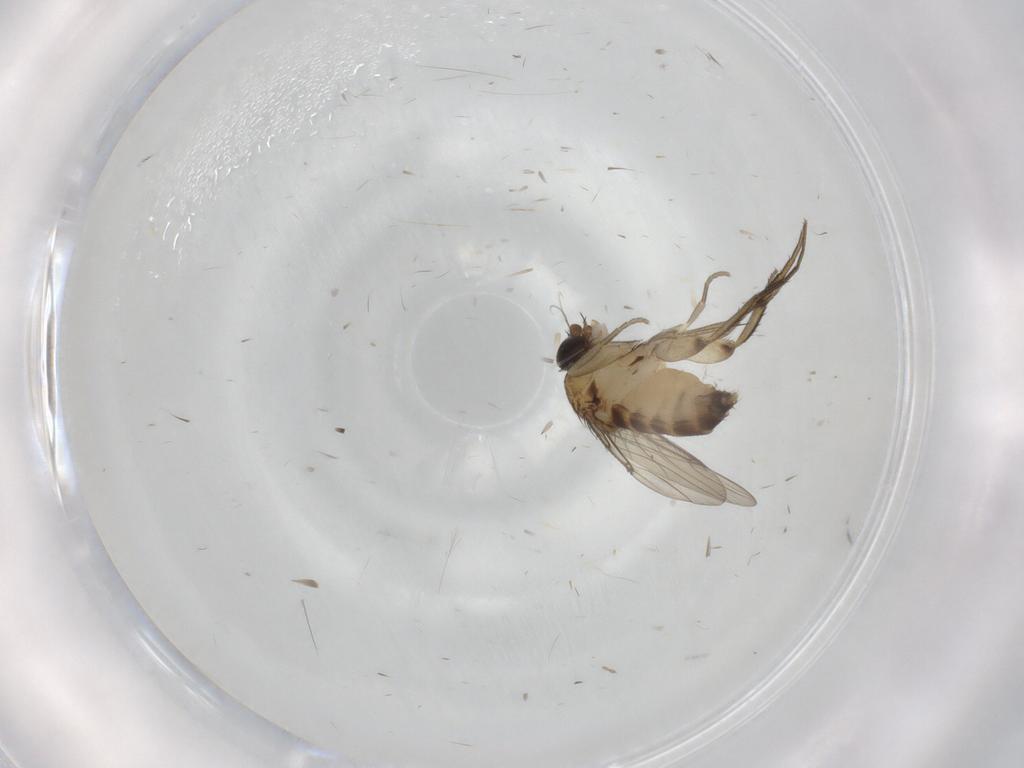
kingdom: Animalia
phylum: Arthropoda
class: Insecta
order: Diptera
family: Phoridae
